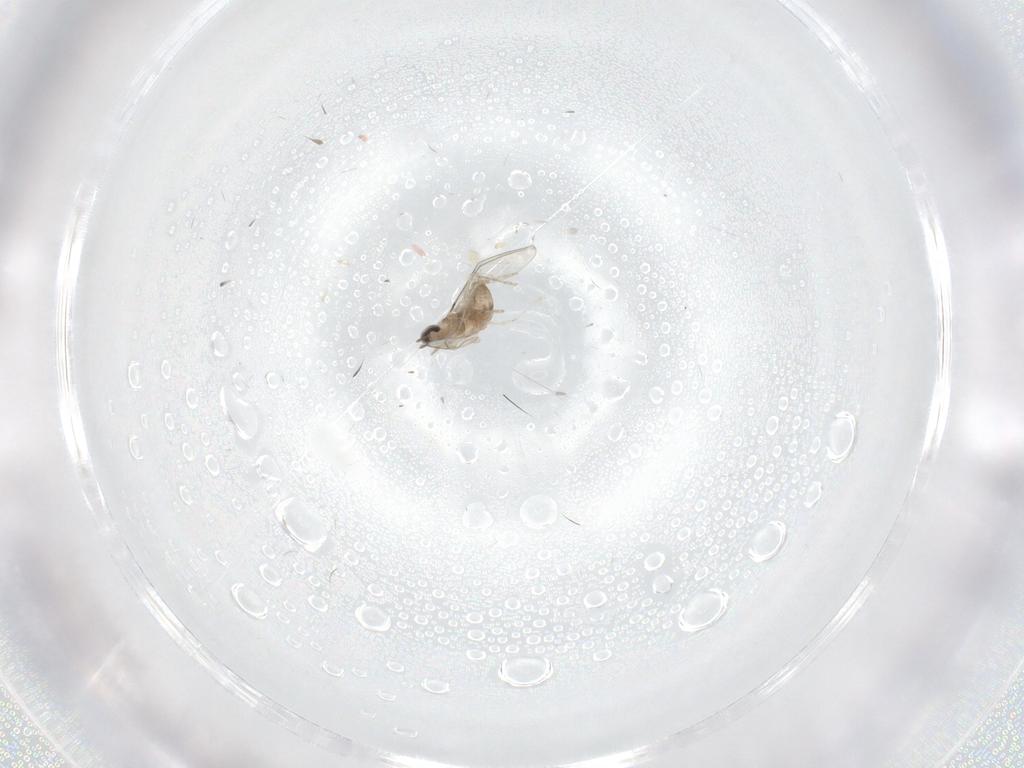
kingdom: Animalia
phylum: Arthropoda
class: Insecta
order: Diptera
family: Cecidomyiidae
